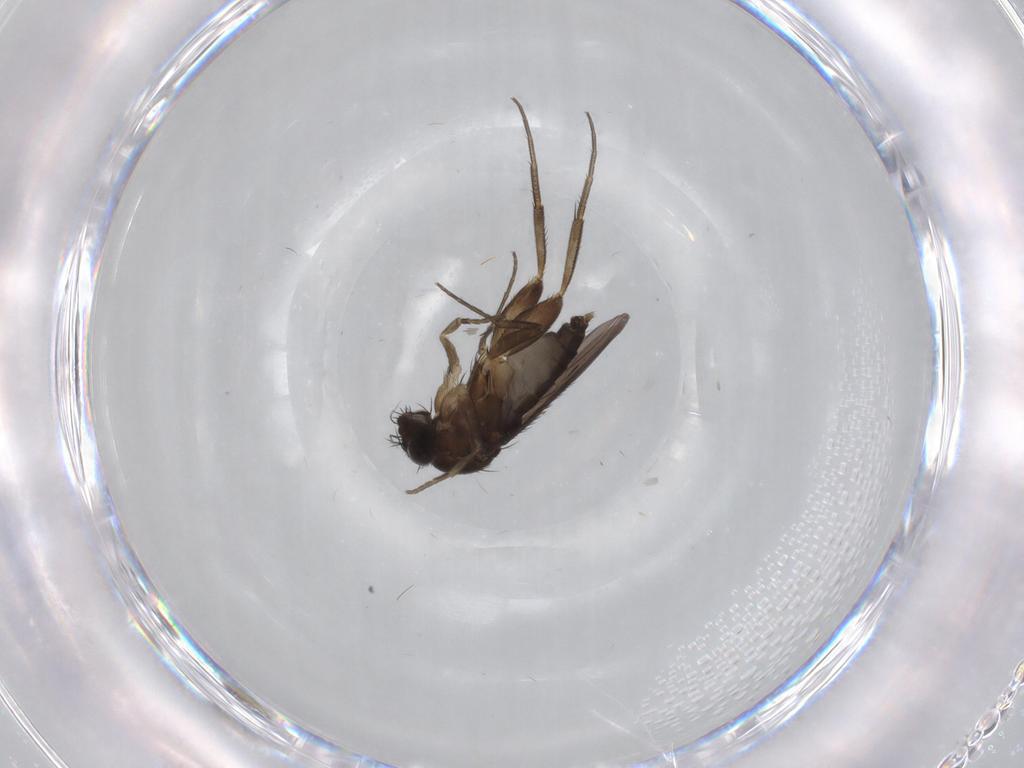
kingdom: Animalia
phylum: Arthropoda
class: Insecta
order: Diptera
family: Phoridae
